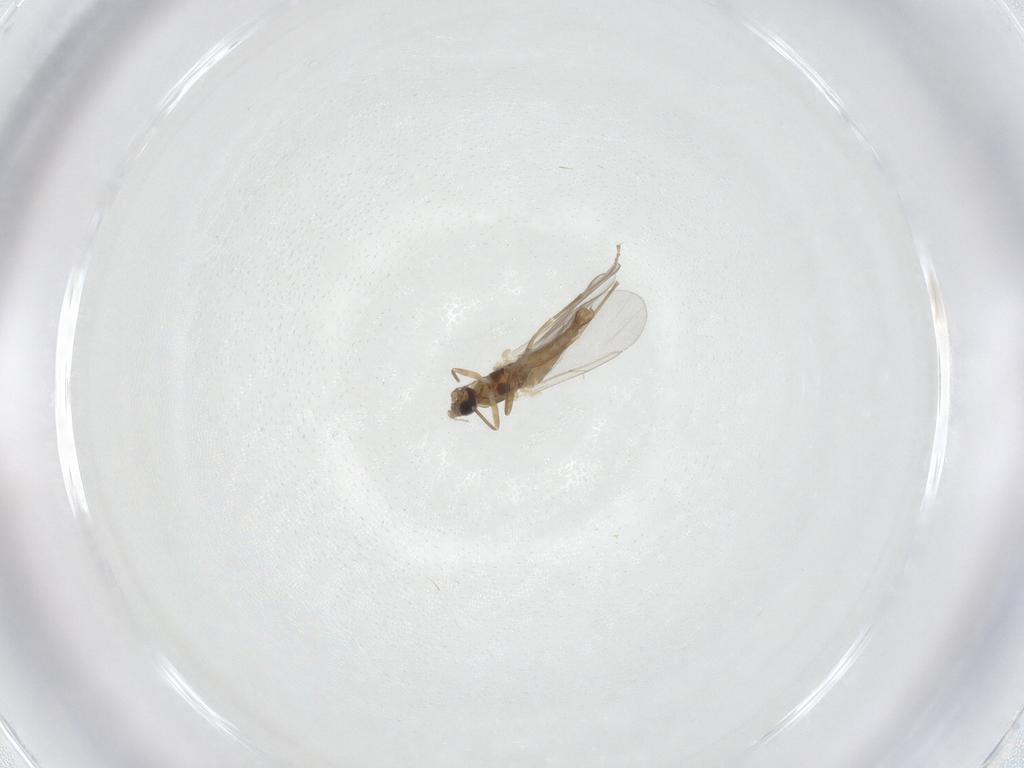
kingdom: Animalia
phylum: Arthropoda
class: Insecta
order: Diptera
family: Cecidomyiidae
